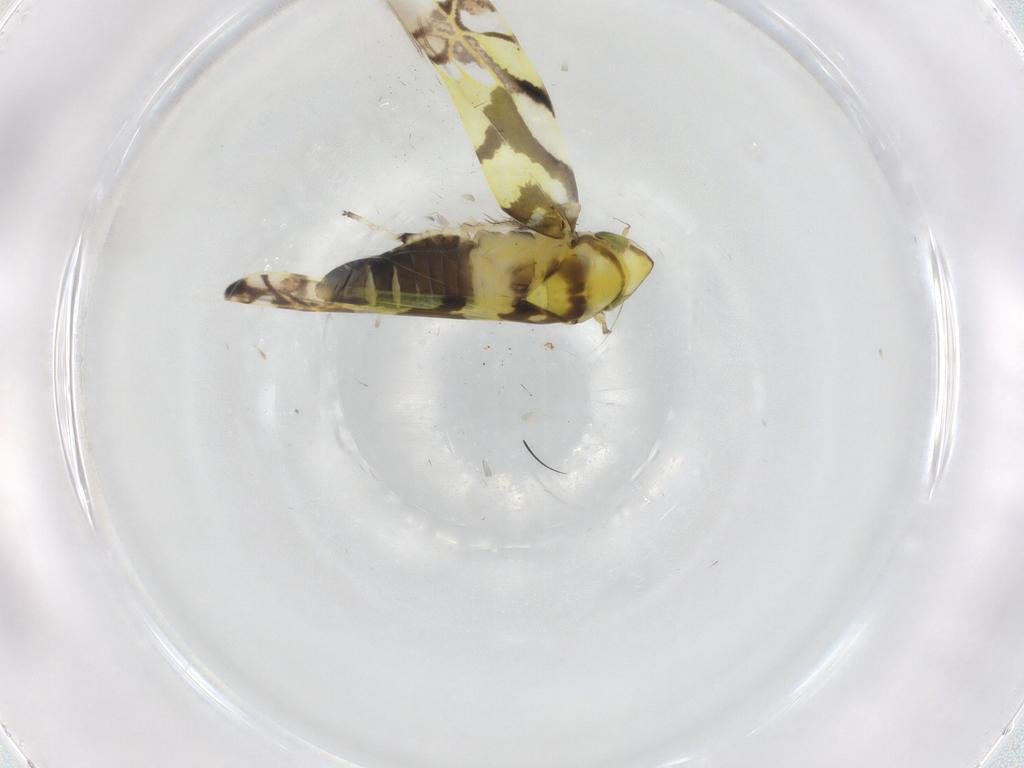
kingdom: Animalia
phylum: Arthropoda
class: Insecta
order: Hemiptera
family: Cicadellidae
